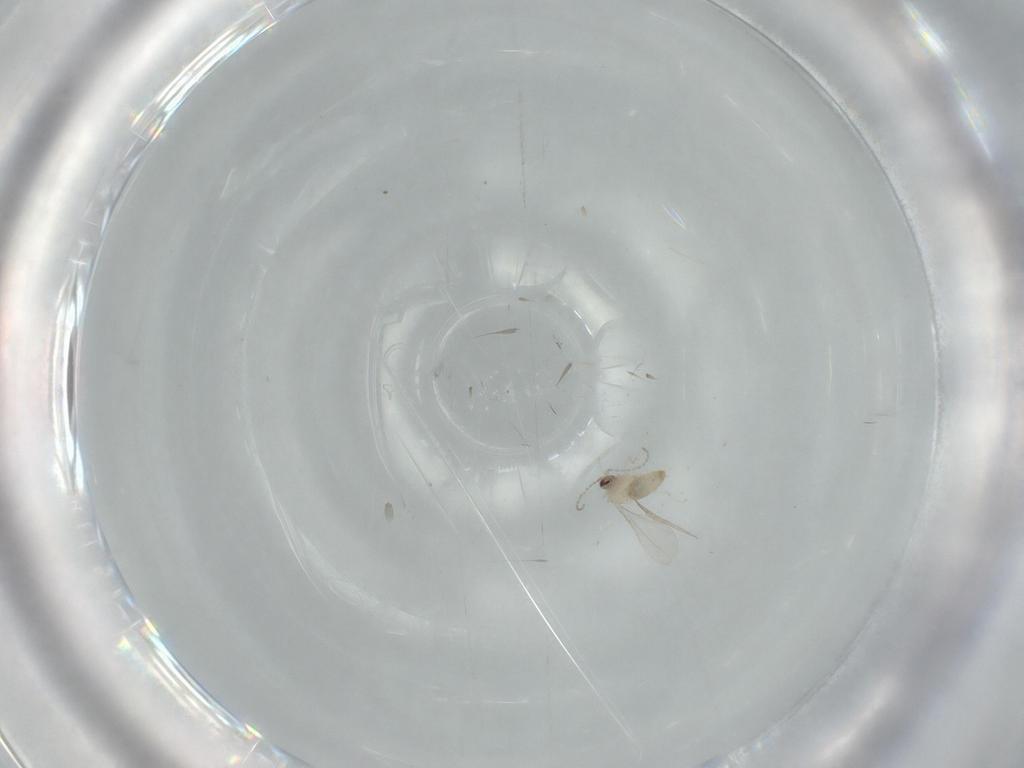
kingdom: Animalia
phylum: Arthropoda
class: Insecta
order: Diptera
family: Cecidomyiidae
